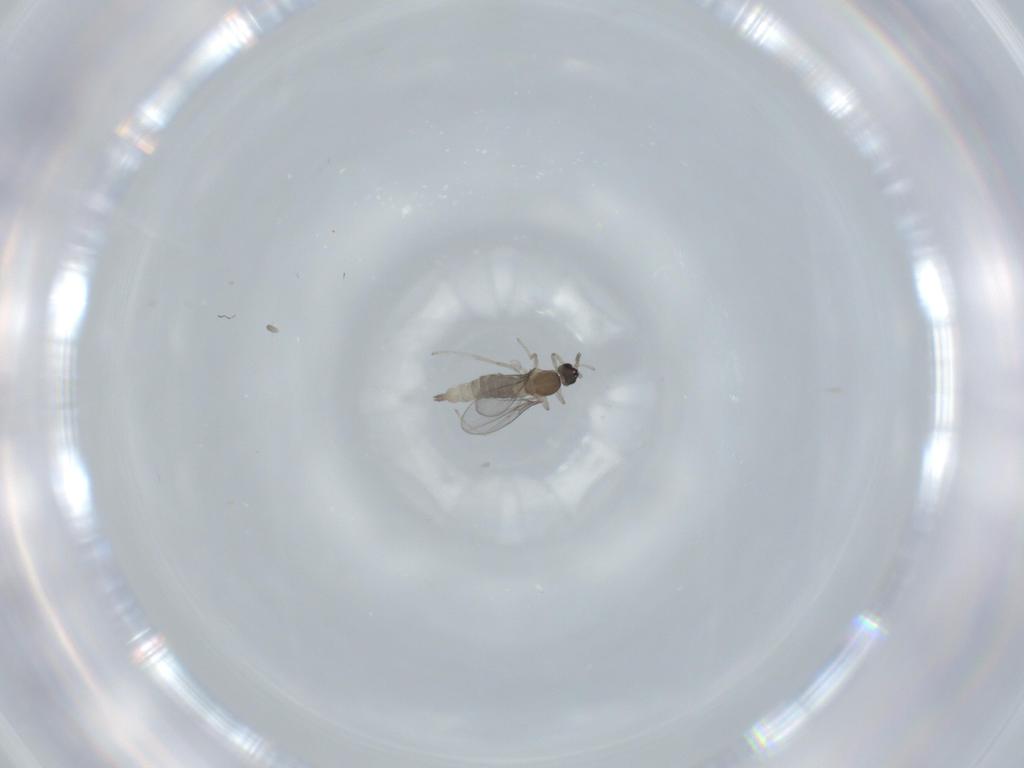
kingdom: Animalia
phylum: Arthropoda
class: Insecta
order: Diptera
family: Cecidomyiidae
